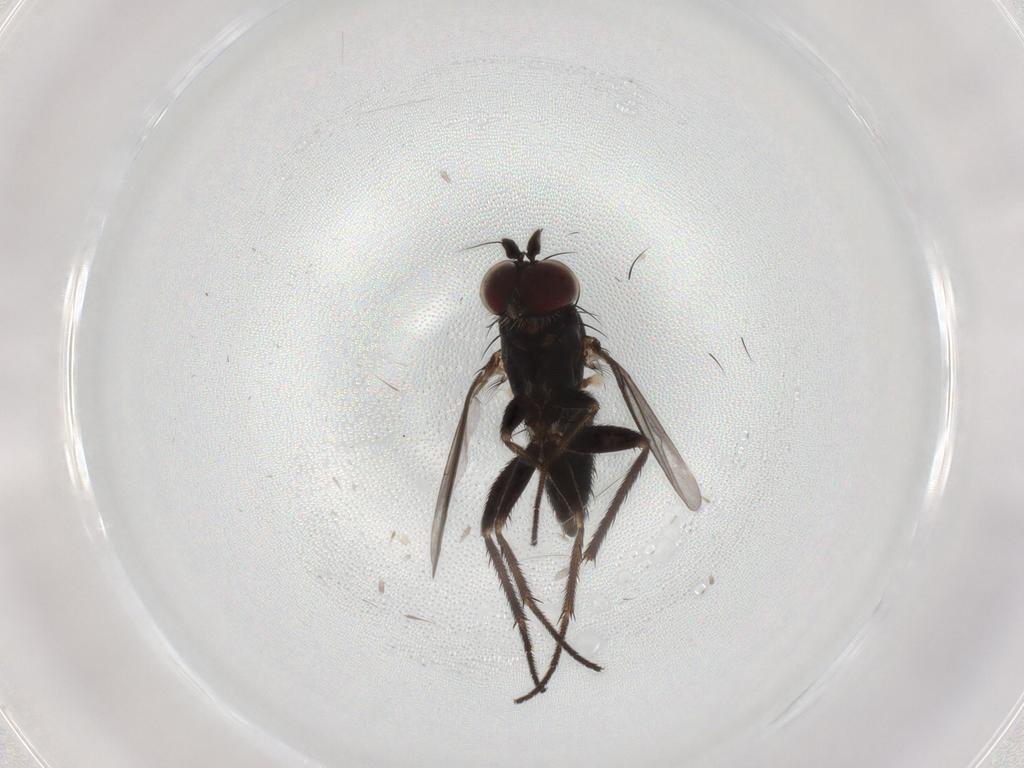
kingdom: Animalia
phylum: Arthropoda
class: Insecta
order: Diptera
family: Dolichopodidae
